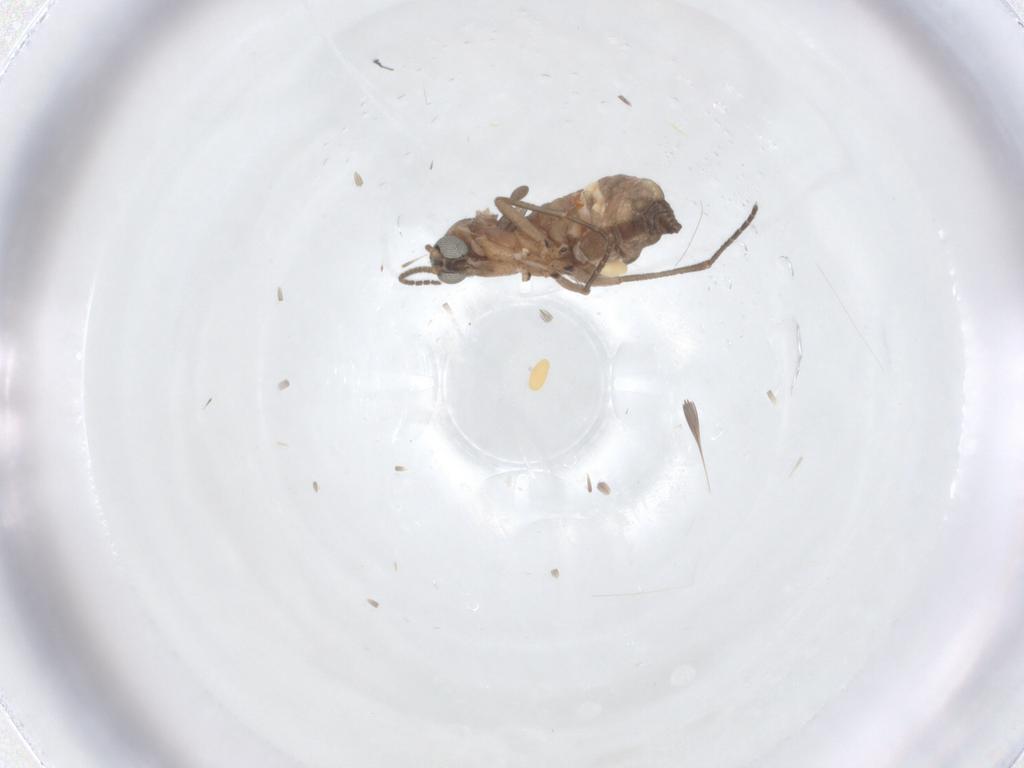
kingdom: Animalia
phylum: Arthropoda
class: Insecta
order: Diptera
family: Sciaridae
